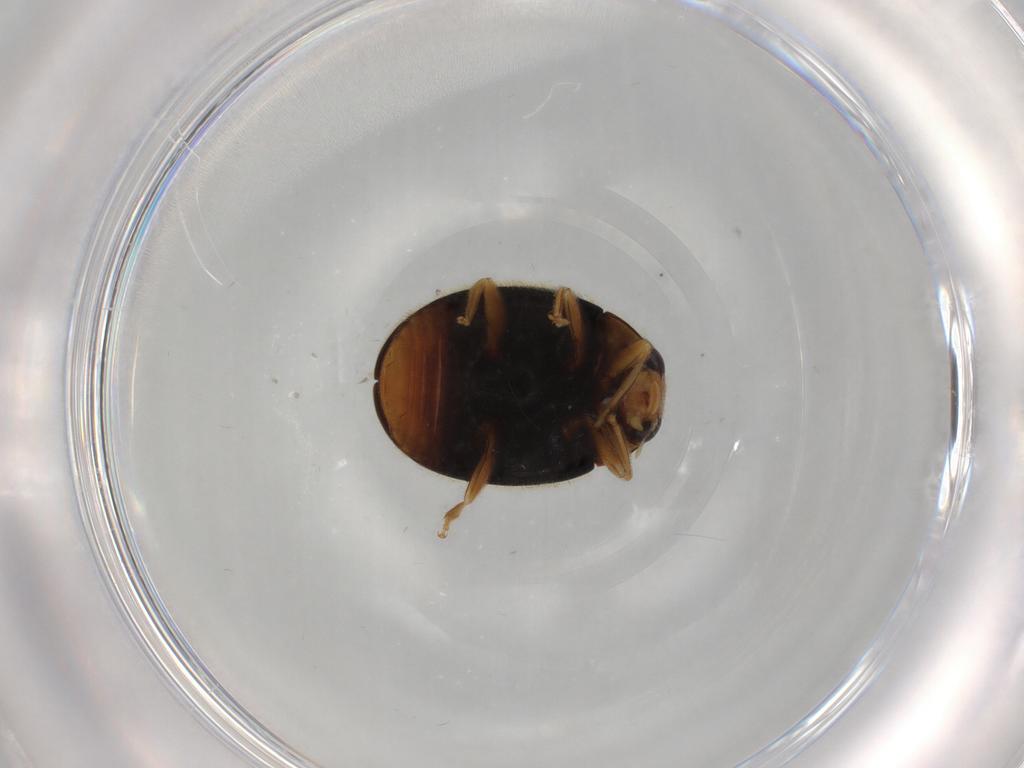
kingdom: Animalia
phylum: Arthropoda
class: Insecta
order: Coleoptera
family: Coccinellidae
